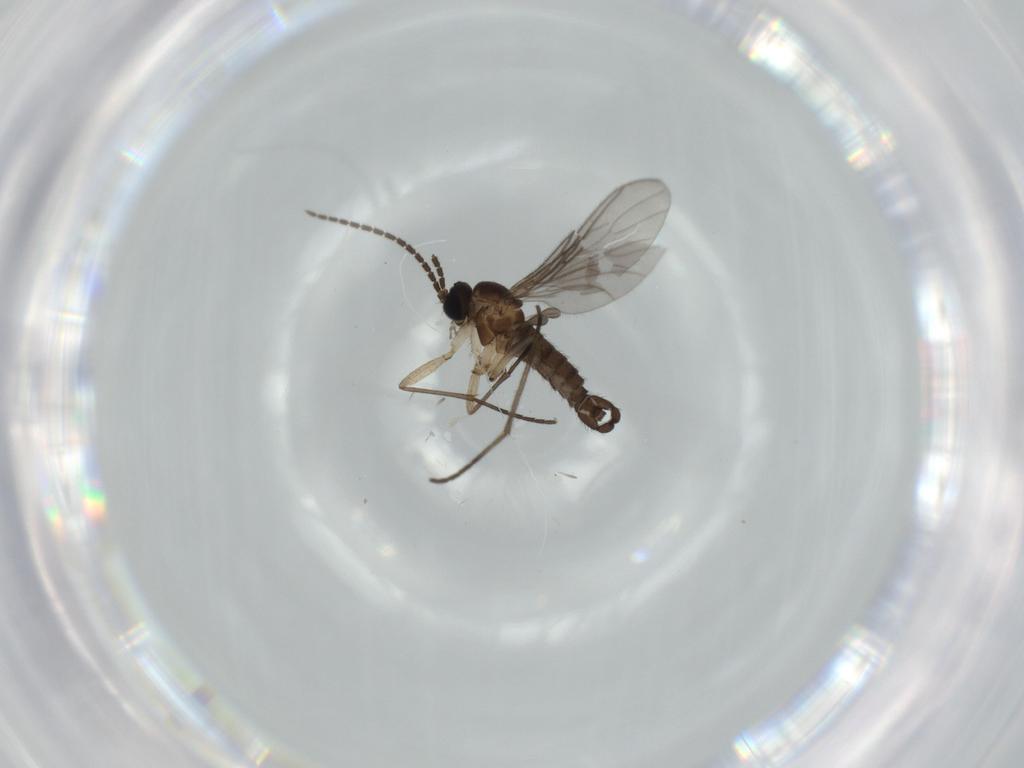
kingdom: Animalia
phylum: Arthropoda
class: Insecta
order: Diptera
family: Sciaridae
